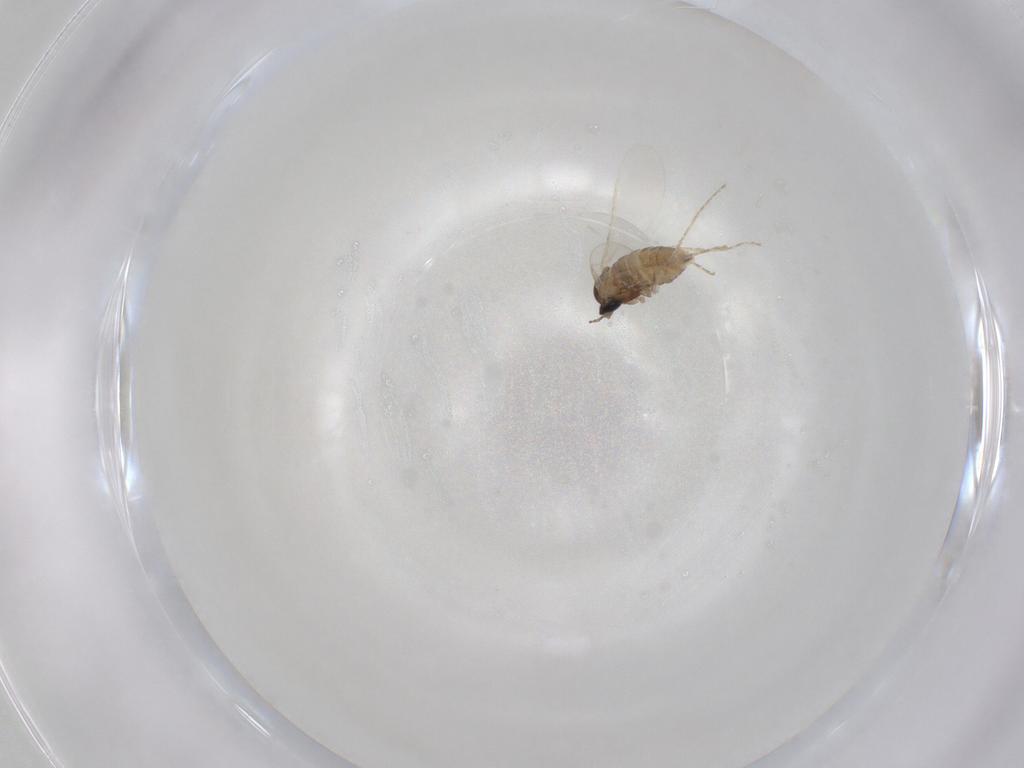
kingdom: Animalia
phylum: Arthropoda
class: Insecta
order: Diptera
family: Cecidomyiidae
